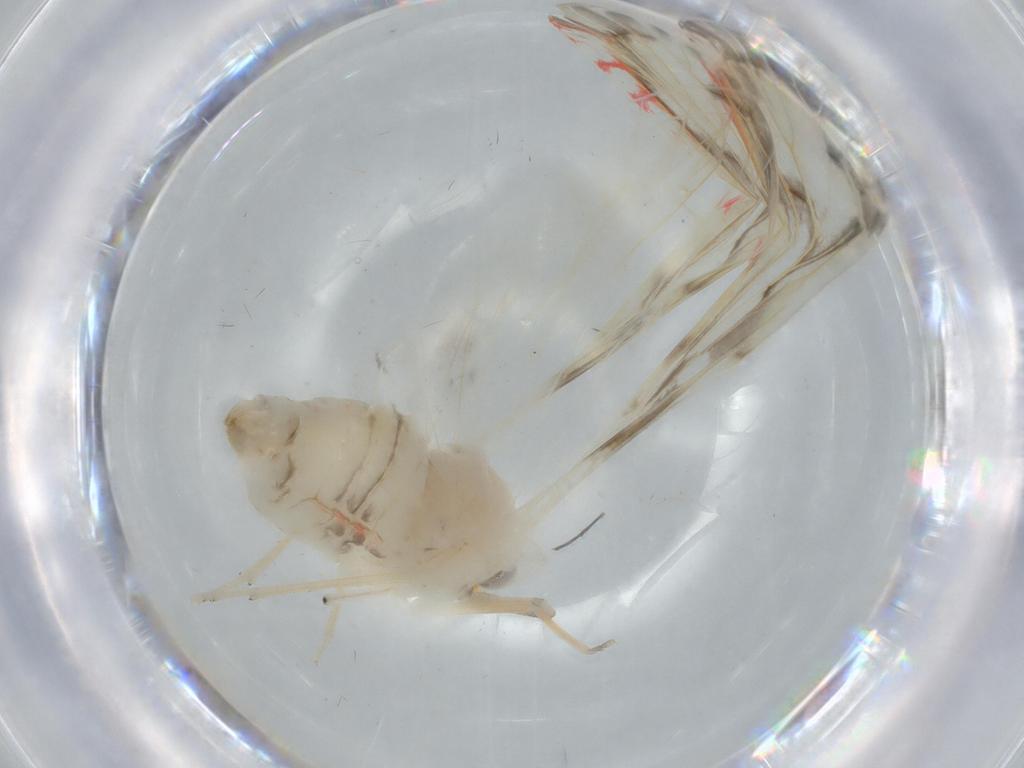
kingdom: Animalia
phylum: Arthropoda
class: Insecta
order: Hemiptera
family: Derbidae
